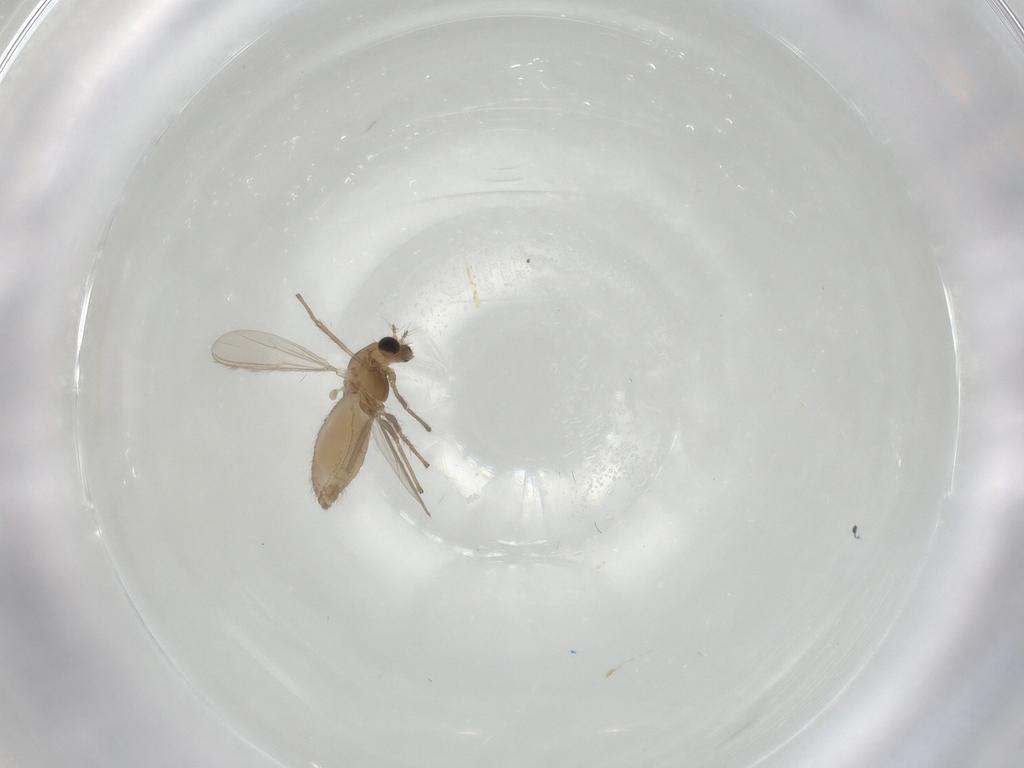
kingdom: Animalia
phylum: Arthropoda
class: Insecta
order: Diptera
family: Chironomidae
